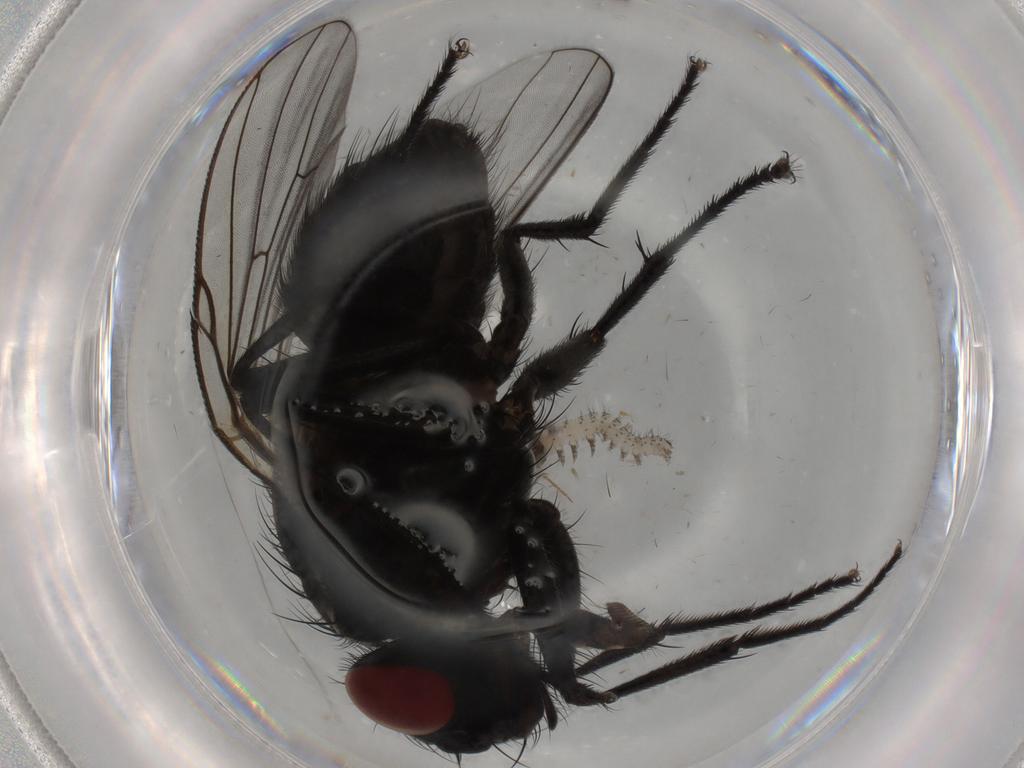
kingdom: Animalia
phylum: Arthropoda
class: Insecta
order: Diptera
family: Muscidae
